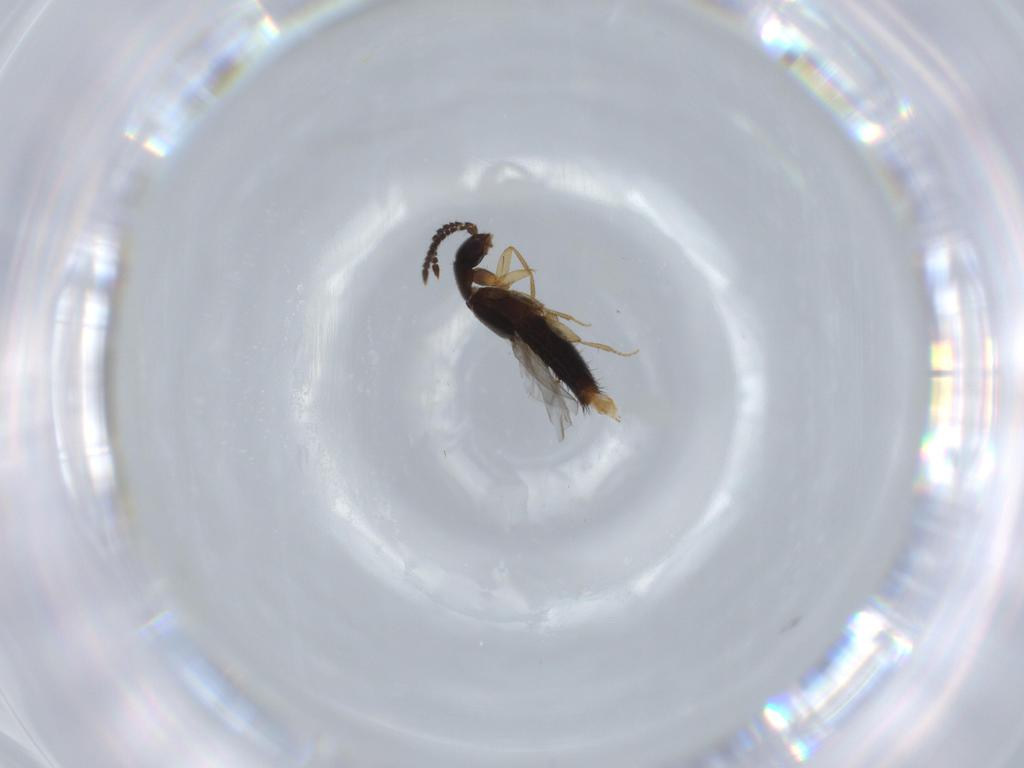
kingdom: Animalia
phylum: Arthropoda
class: Insecta
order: Coleoptera
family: Staphylinidae
